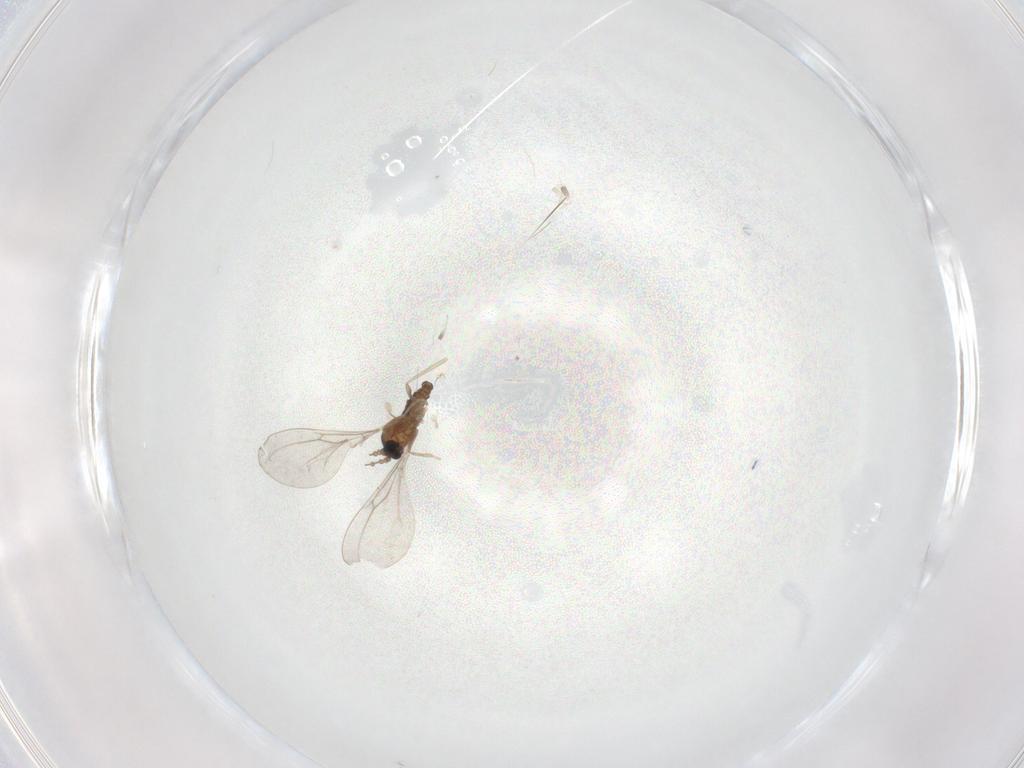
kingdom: Animalia
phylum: Arthropoda
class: Insecta
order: Diptera
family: Cecidomyiidae
